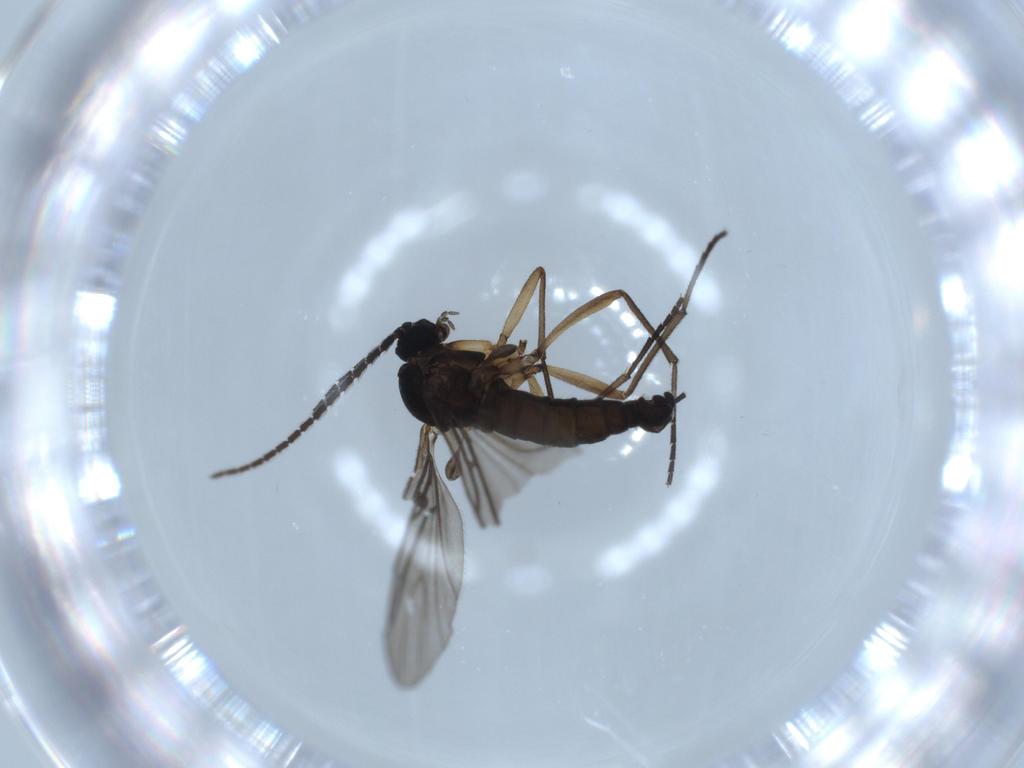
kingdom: Animalia
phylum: Arthropoda
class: Insecta
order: Diptera
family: Sciaridae
